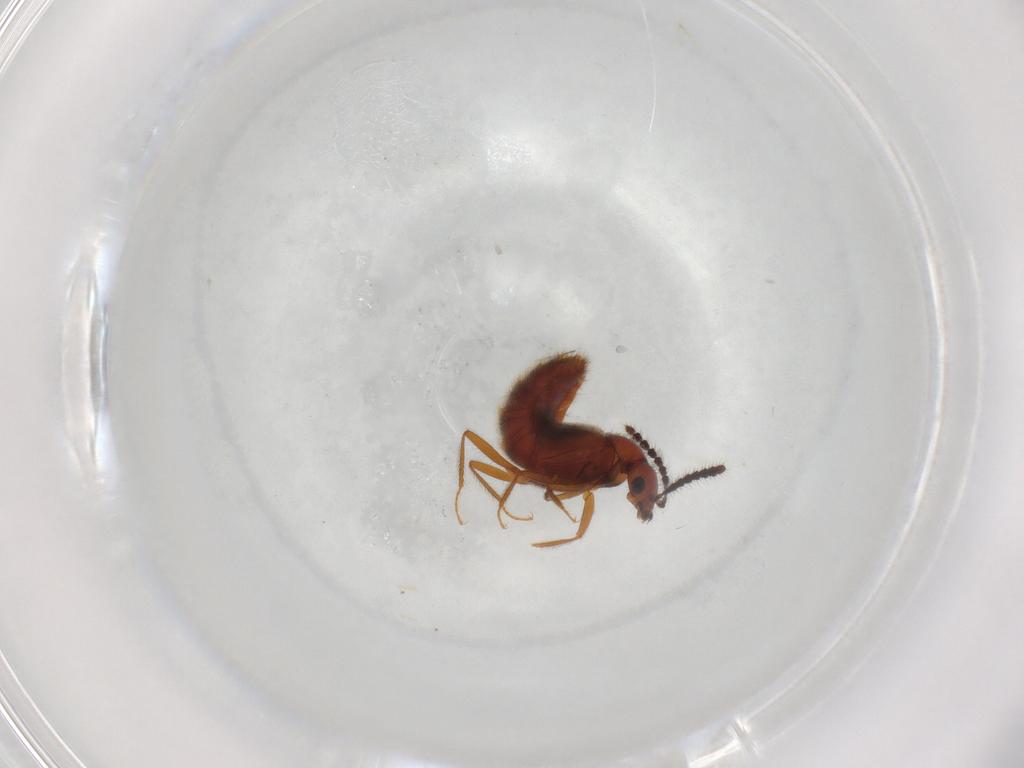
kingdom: Animalia
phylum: Arthropoda
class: Insecta
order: Coleoptera
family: Staphylinidae
